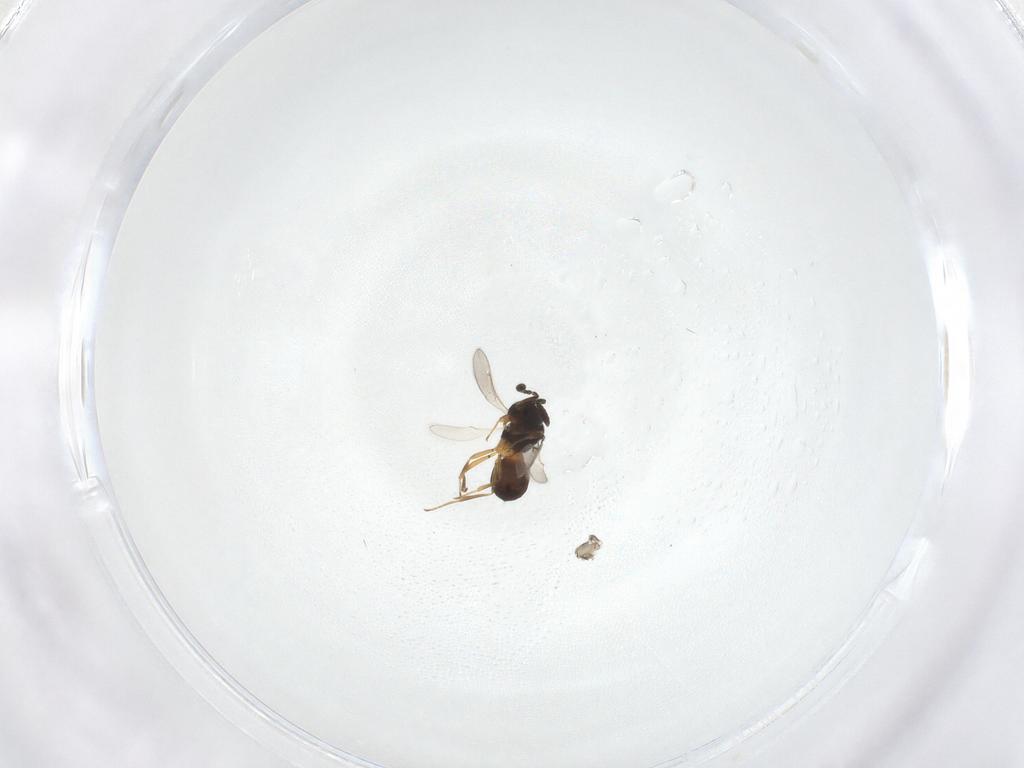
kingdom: Animalia
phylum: Arthropoda
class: Insecta
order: Hymenoptera
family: Scelionidae
